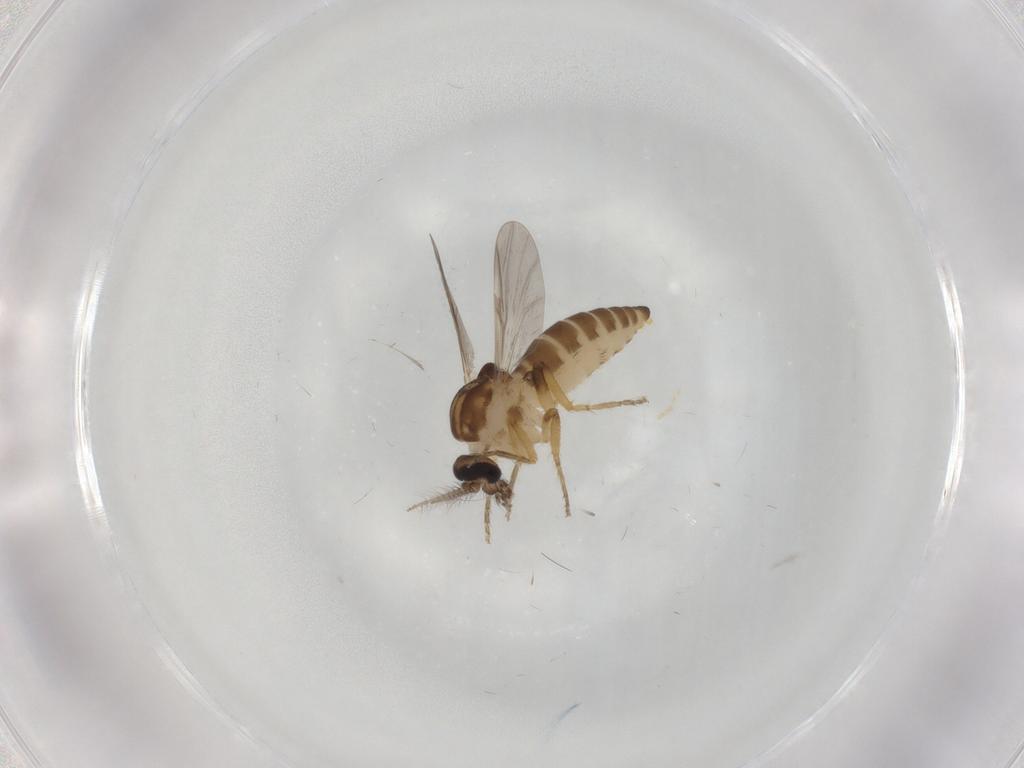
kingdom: Animalia
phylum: Arthropoda
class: Insecta
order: Diptera
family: Ceratopogonidae
